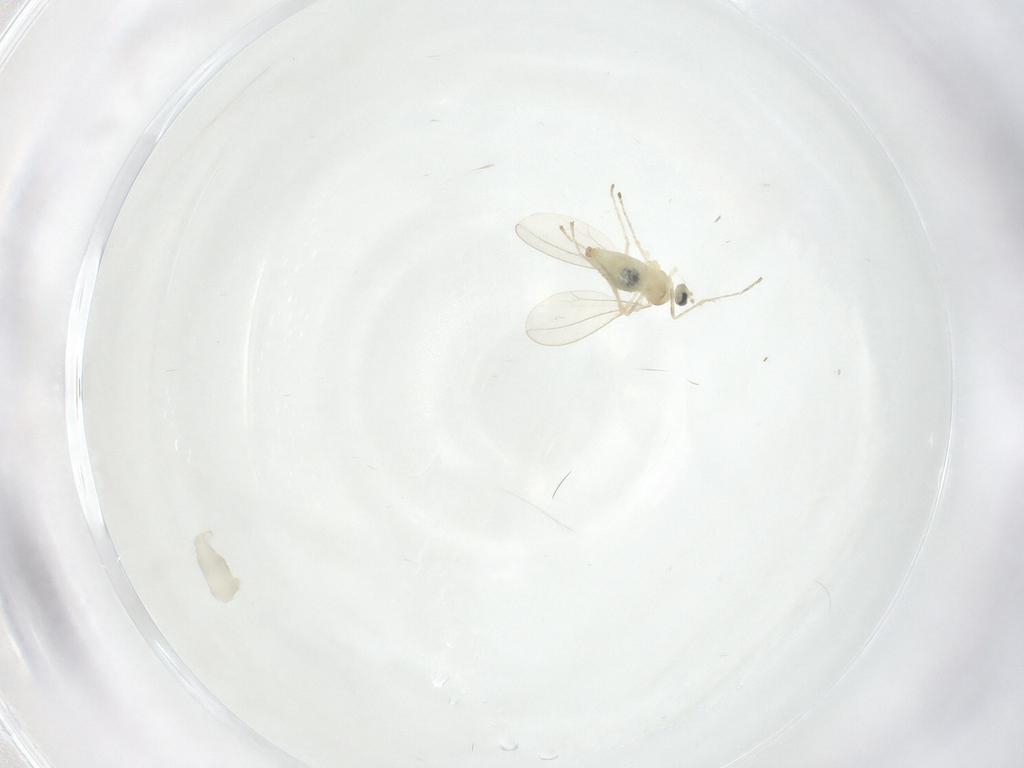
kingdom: Animalia
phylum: Arthropoda
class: Insecta
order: Diptera
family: Cecidomyiidae
